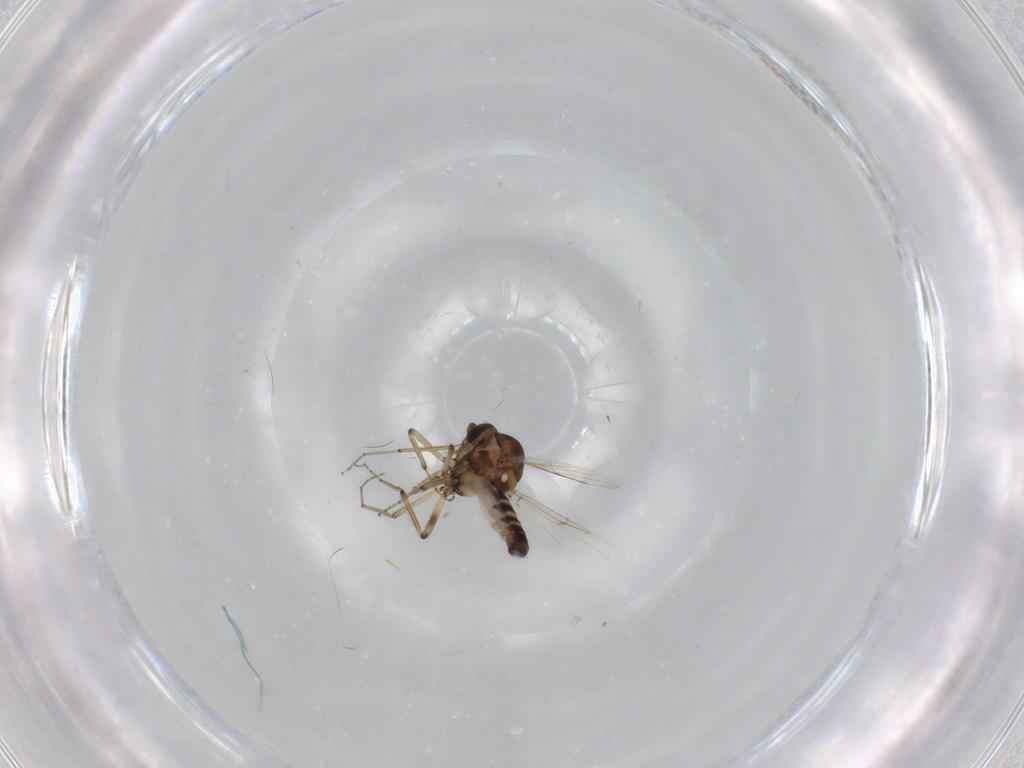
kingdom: Animalia
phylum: Arthropoda
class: Insecta
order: Diptera
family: Ceratopogonidae
